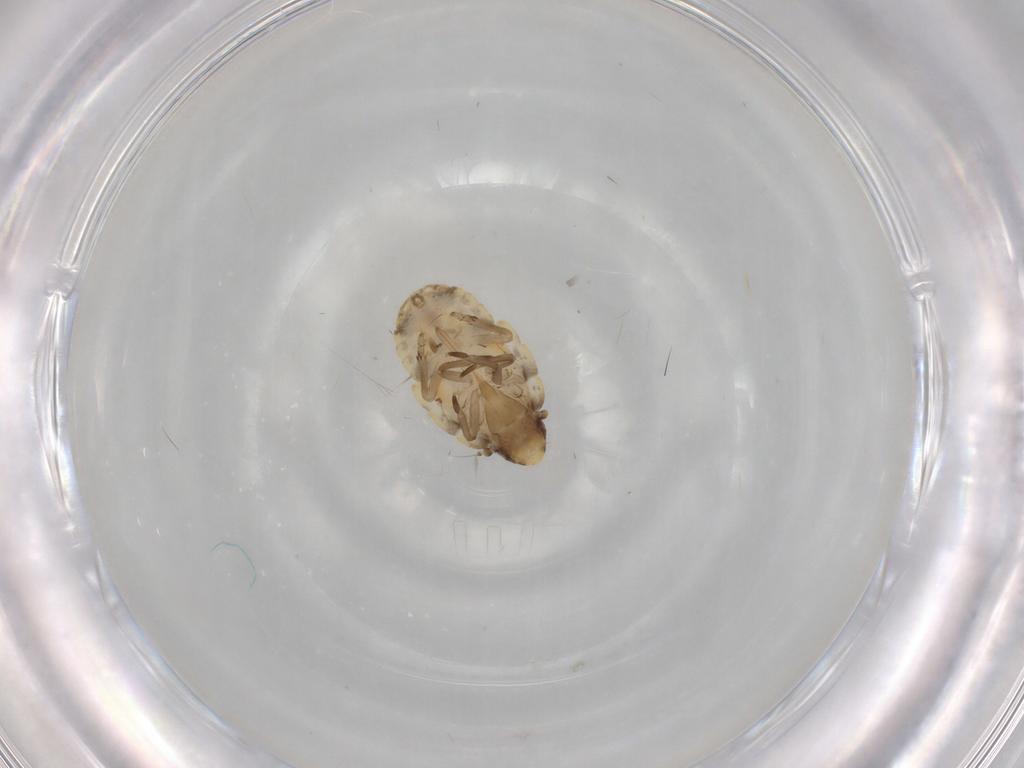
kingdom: Animalia
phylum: Arthropoda
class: Insecta
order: Hemiptera
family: Flatidae
